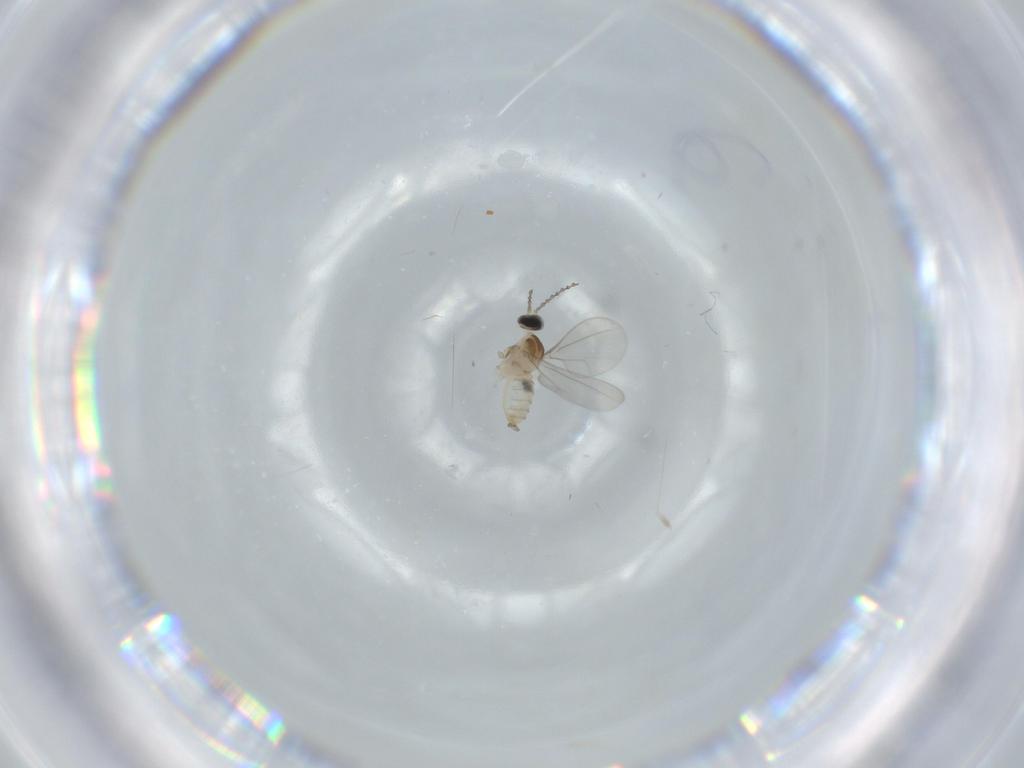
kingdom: Animalia
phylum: Arthropoda
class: Insecta
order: Diptera
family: Cecidomyiidae
